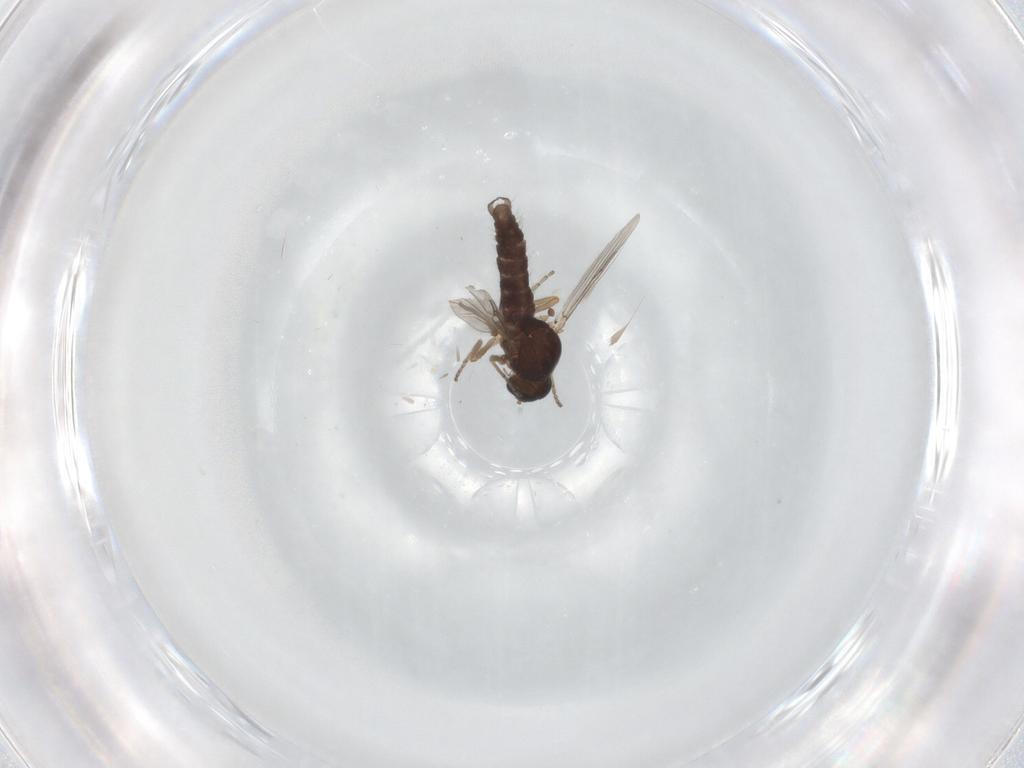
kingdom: Animalia
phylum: Arthropoda
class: Insecta
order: Diptera
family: Ceratopogonidae
